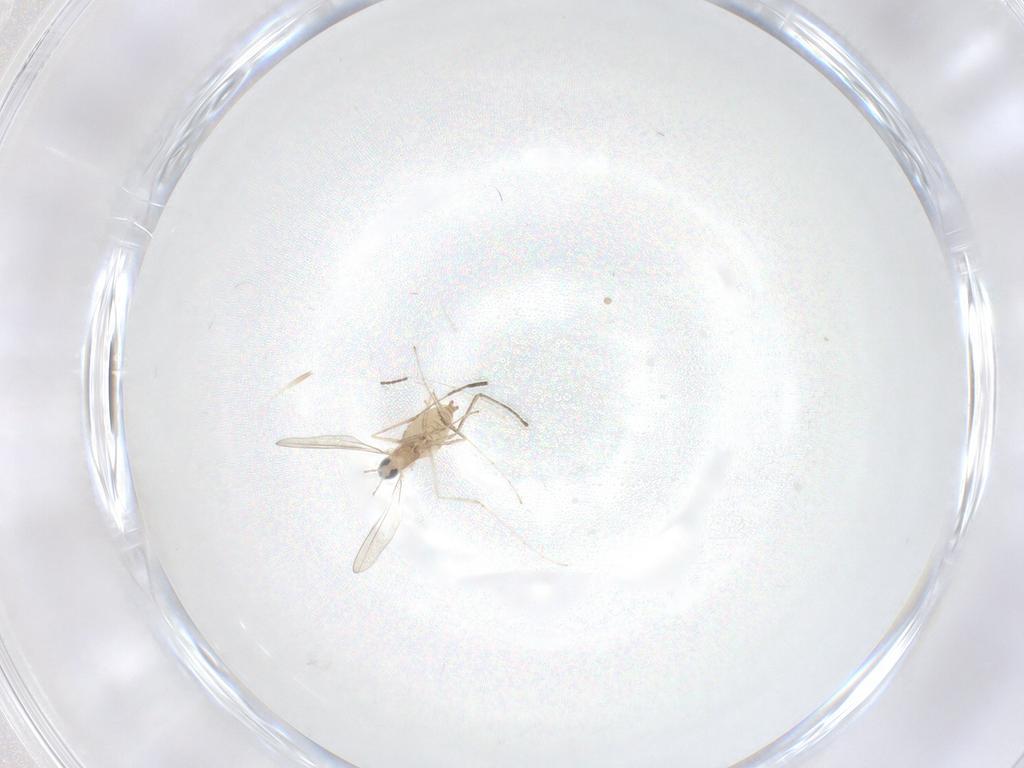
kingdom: Animalia
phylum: Arthropoda
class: Insecta
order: Diptera
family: Cecidomyiidae
